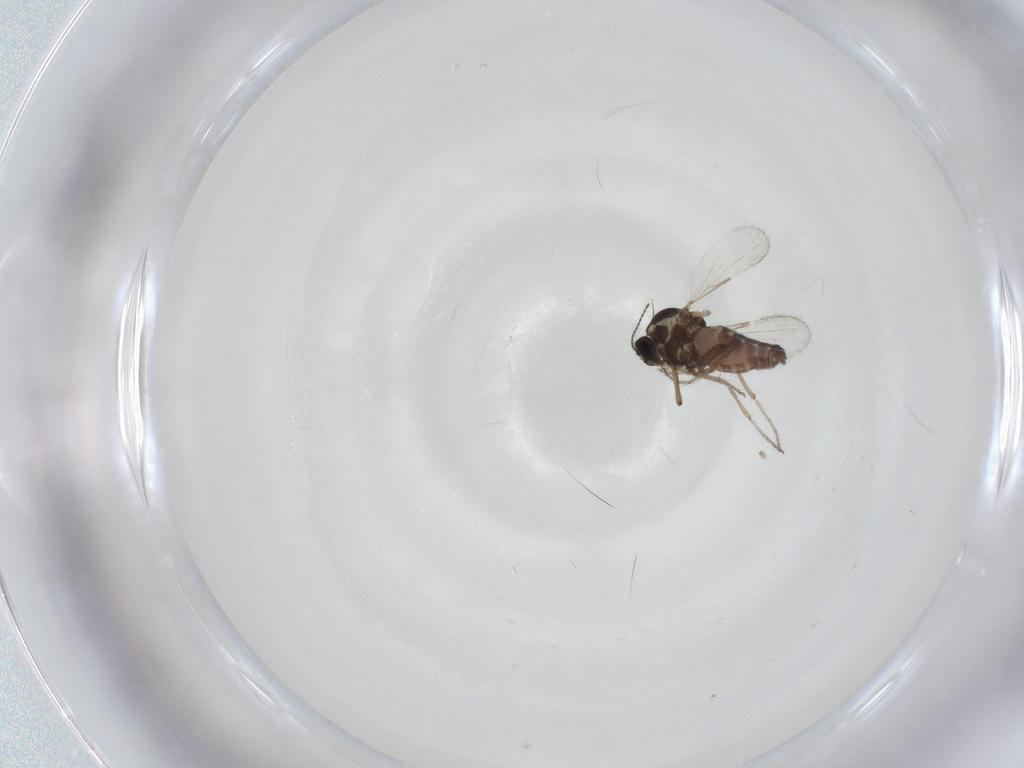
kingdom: Animalia
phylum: Arthropoda
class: Insecta
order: Diptera
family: Ceratopogonidae
